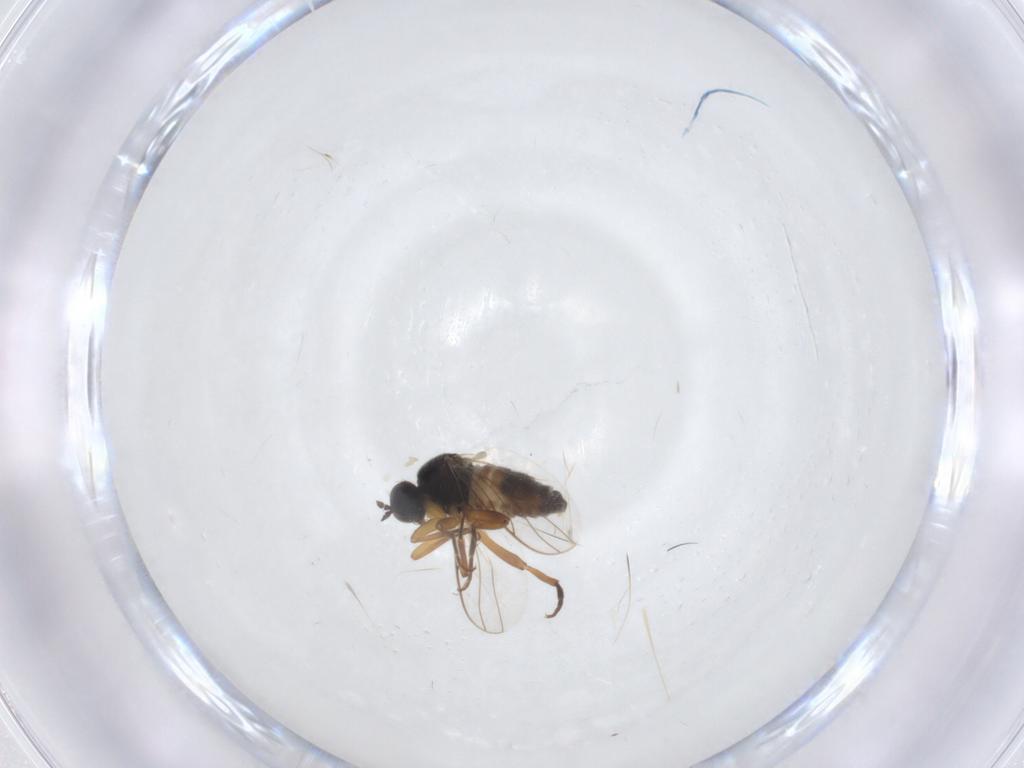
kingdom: Animalia
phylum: Arthropoda
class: Insecta
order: Diptera
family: Hybotidae
